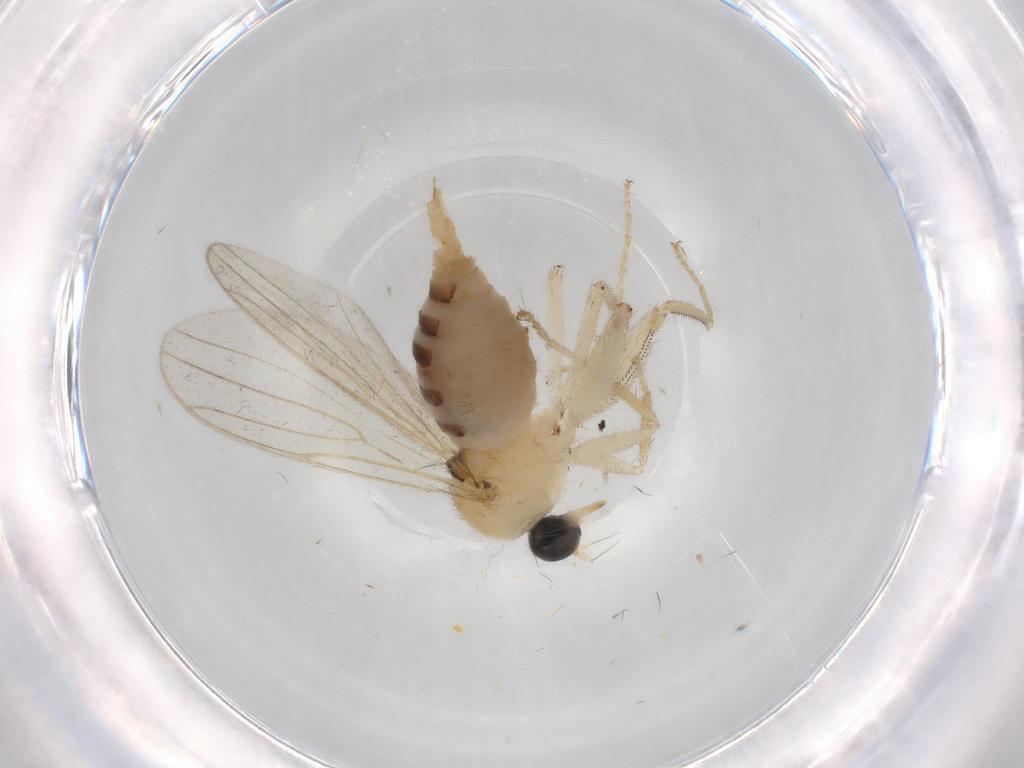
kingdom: Animalia
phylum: Arthropoda
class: Insecta
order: Diptera
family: Hybotidae
